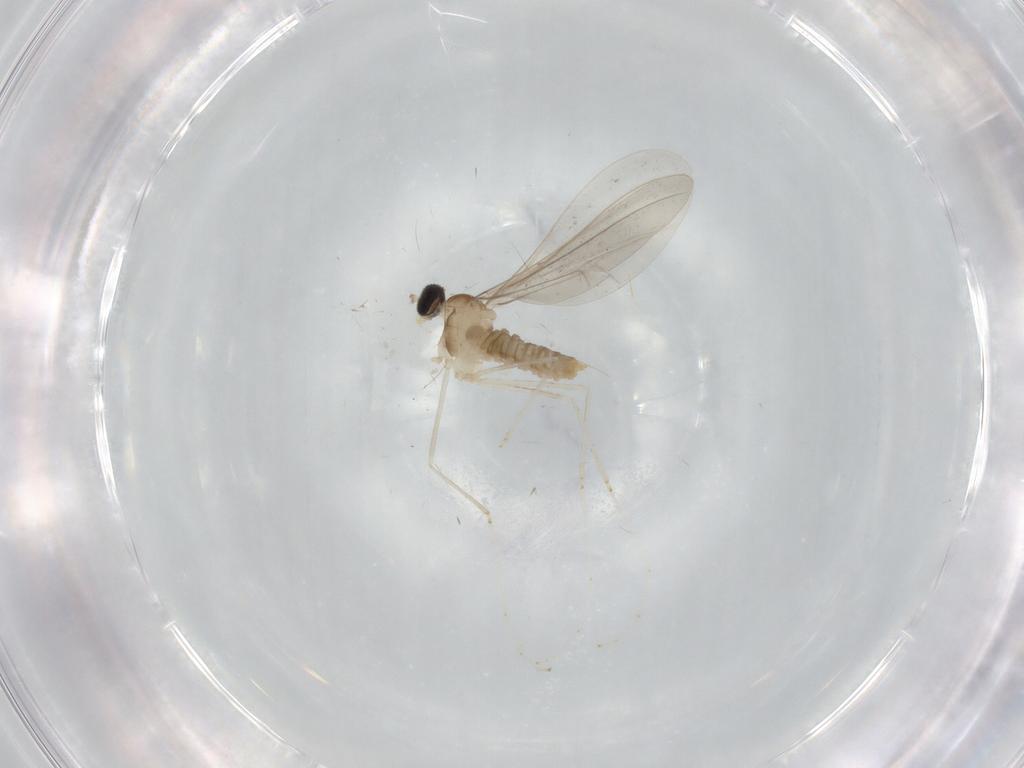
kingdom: Animalia
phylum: Arthropoda
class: Insecta
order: Diptera
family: Cecidomyiidae
